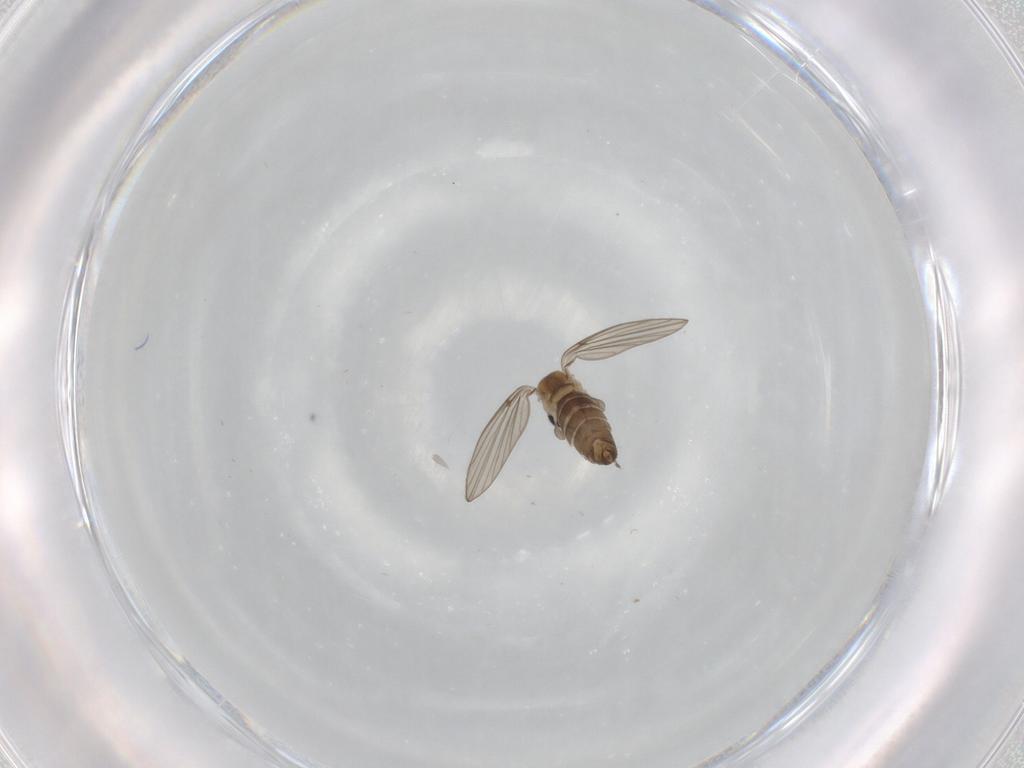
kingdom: Animalia
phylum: Arthropoda
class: Insecta
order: Diptera
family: Psychodidae
